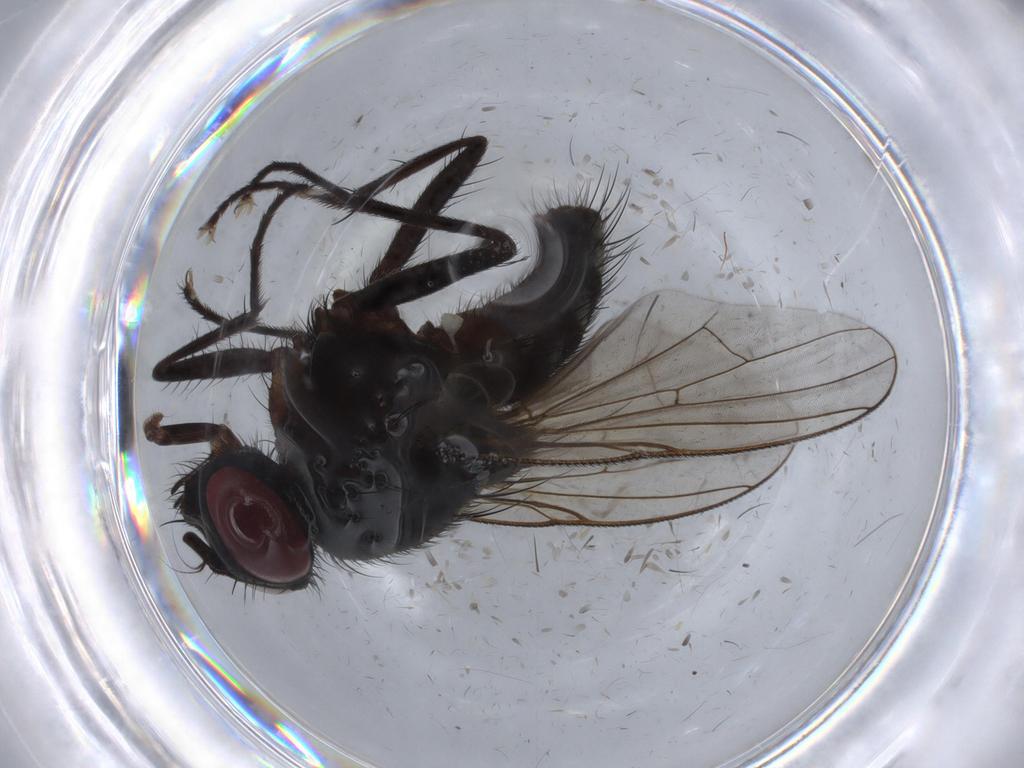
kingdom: Animalia
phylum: Arthropoda
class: Insecta
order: Diptera
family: Muscidae
